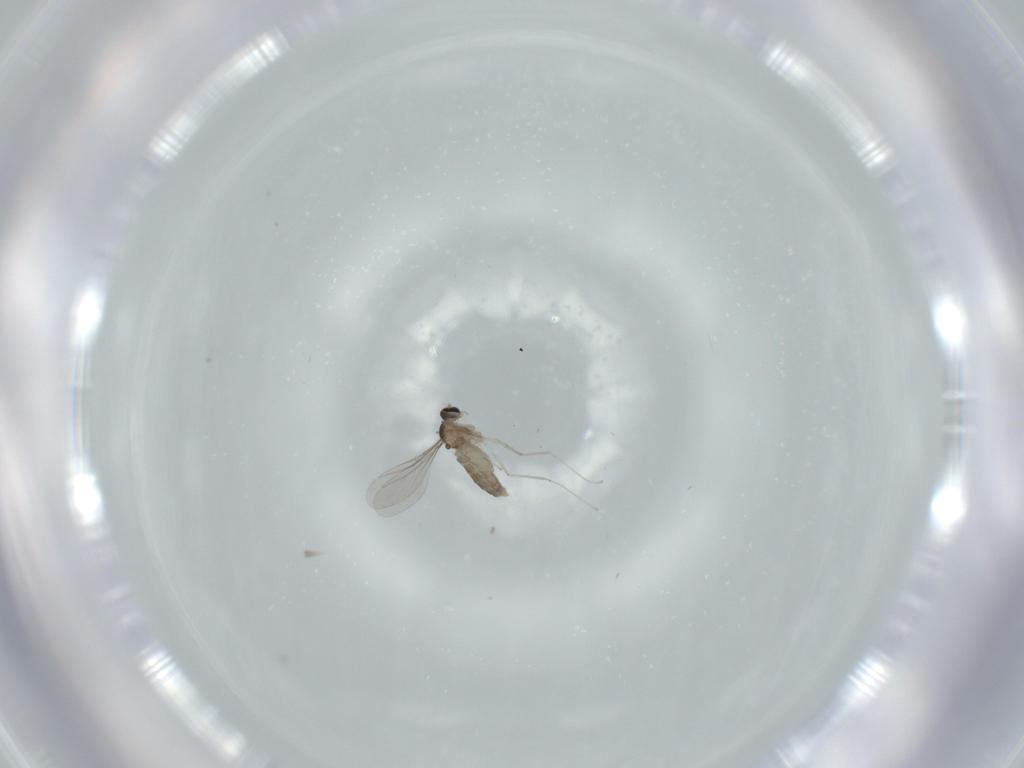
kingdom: Animalia
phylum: Arthropoda
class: Insecta
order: Diptera
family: Cecidomyiidae
